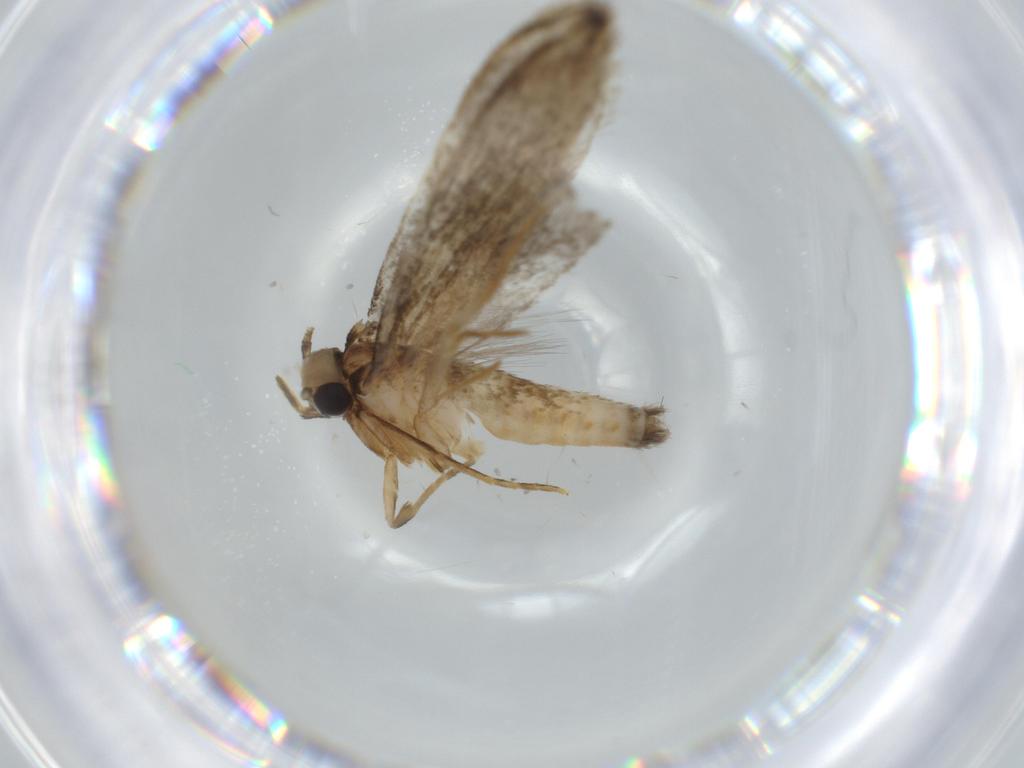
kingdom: Animalia
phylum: Arthropoda
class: Insecta
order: Lepidoptera
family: Tineidae
